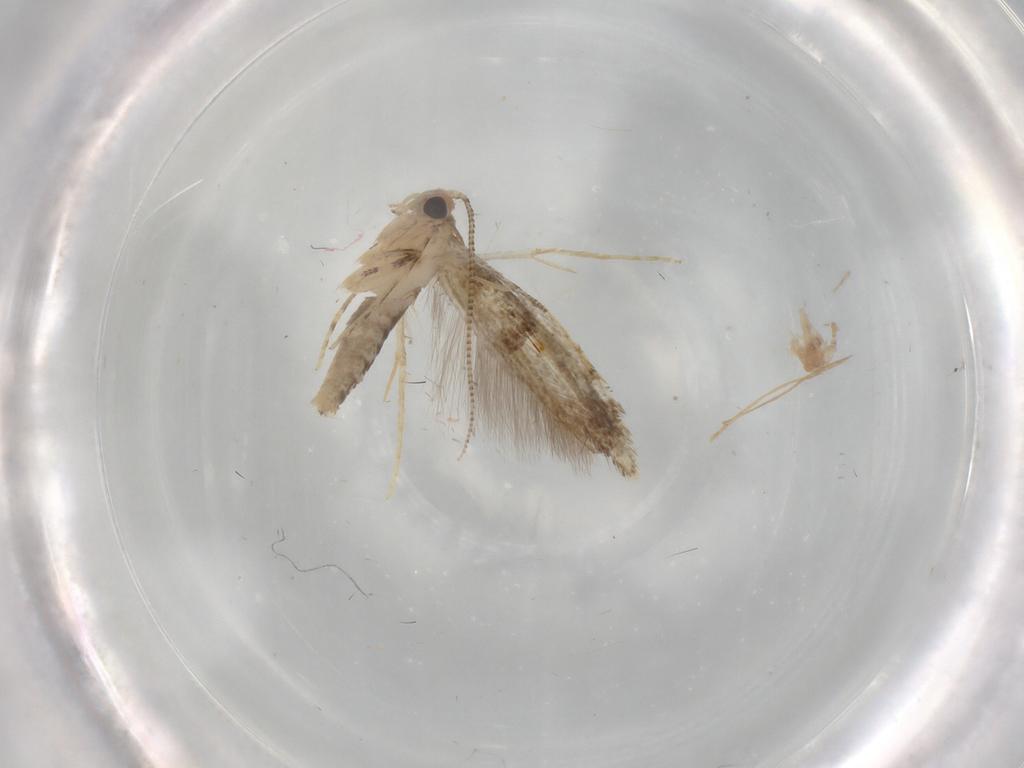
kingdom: Animalia
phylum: Arthropoda
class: Insecta
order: Lepidoptera
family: Tineidae
